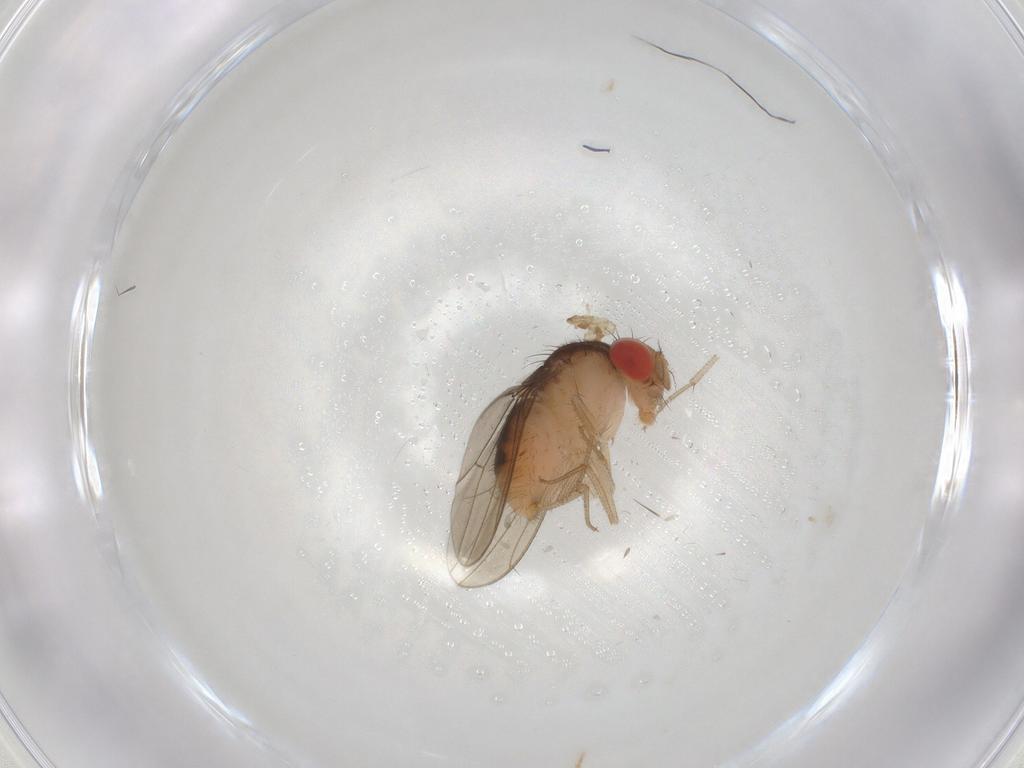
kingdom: Animalia
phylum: Arthropoda
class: Insecta
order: Diptera
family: Drosophilidae
